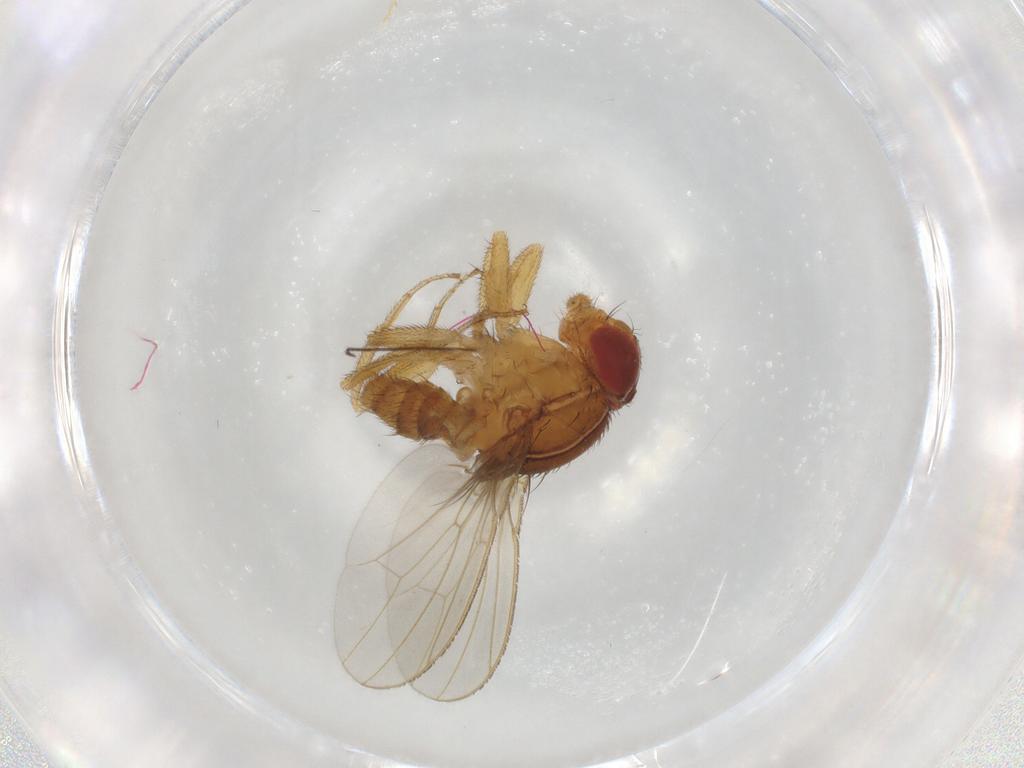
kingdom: Animalia
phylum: Arthropoda
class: Insecta
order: Diptera
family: Drosophilidae
